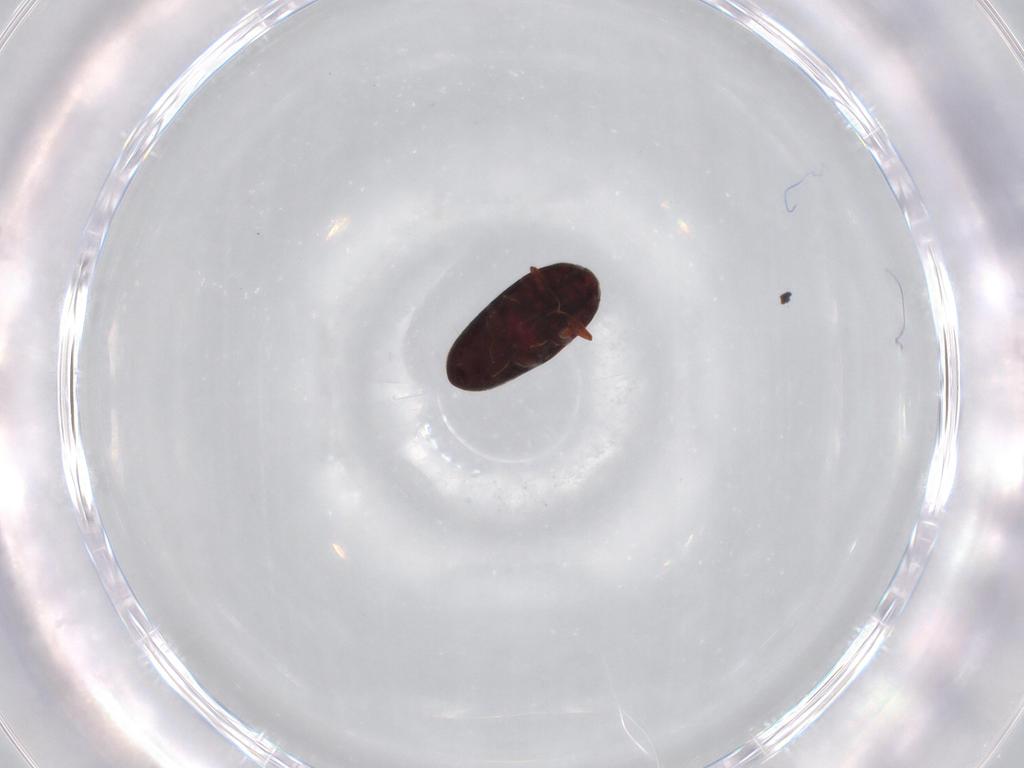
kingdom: Animalia
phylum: Arthropoda
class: Insecta
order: Coleoptera
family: Throscidae
